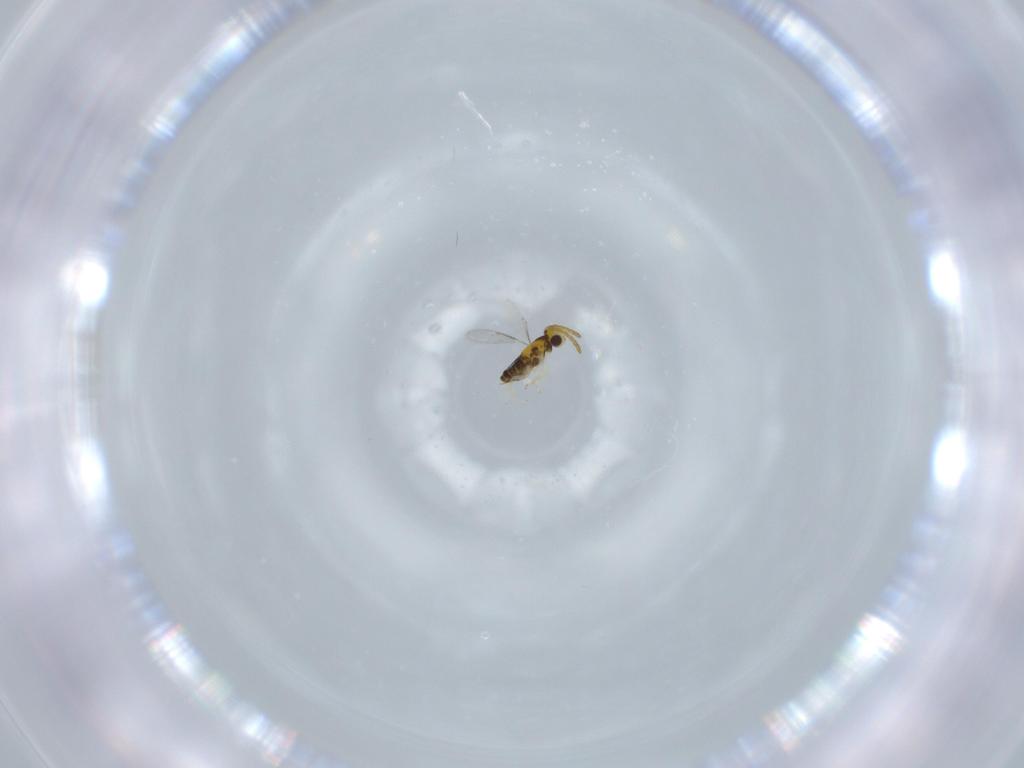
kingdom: Animalia
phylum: Arthropoda
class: Insecta
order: Hymenoptera
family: Aphelinidae
